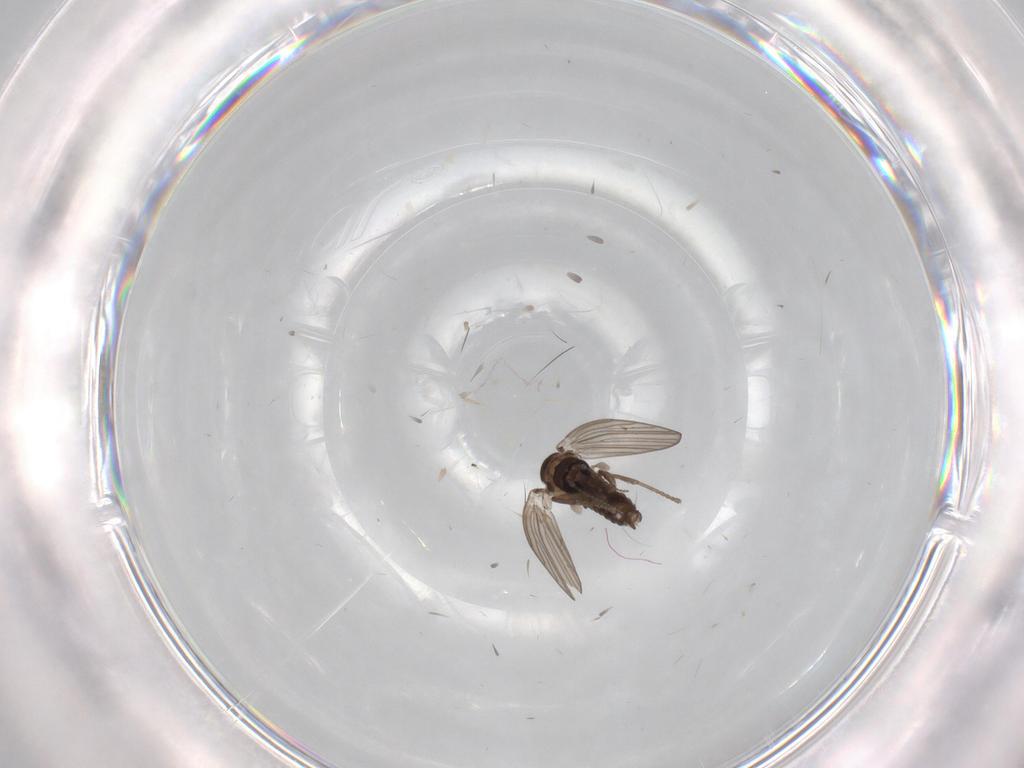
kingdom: Animalia
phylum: Arthropoda
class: Insecta
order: Diptera
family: Psychodidae
